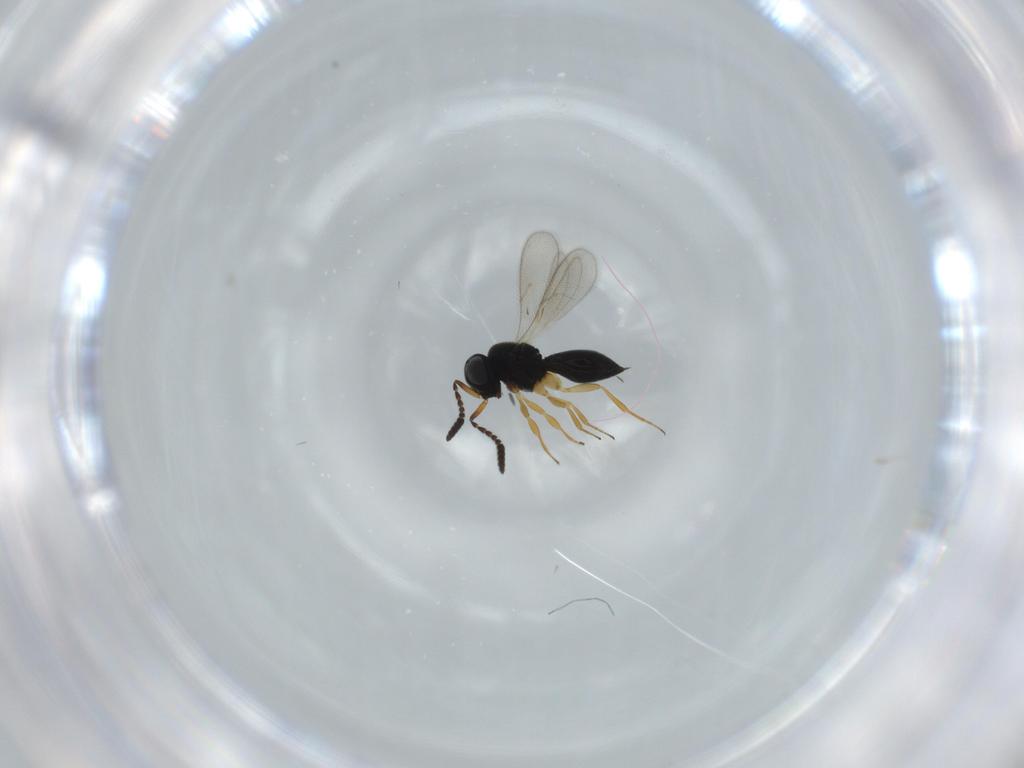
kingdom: Animalia
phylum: Arthropoda
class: Insecta
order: Hymenoptera
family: Scelionidae
